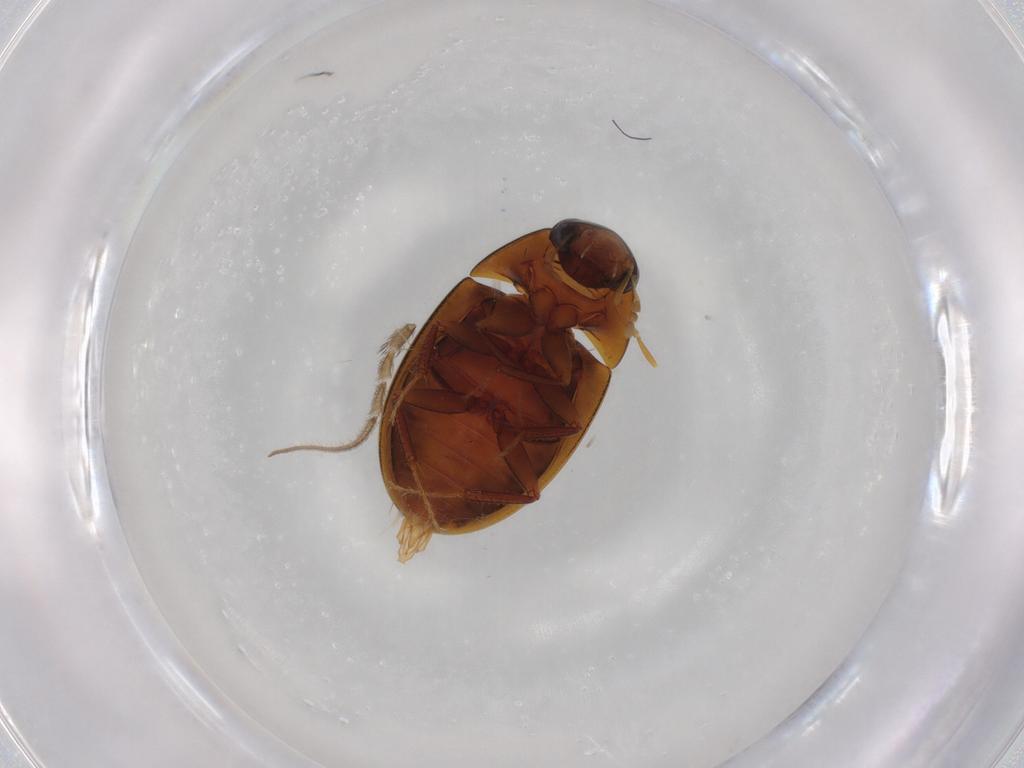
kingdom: Animalia
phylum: Arthropoda
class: Insecta
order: Coleoptera
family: Hydrophilidae
